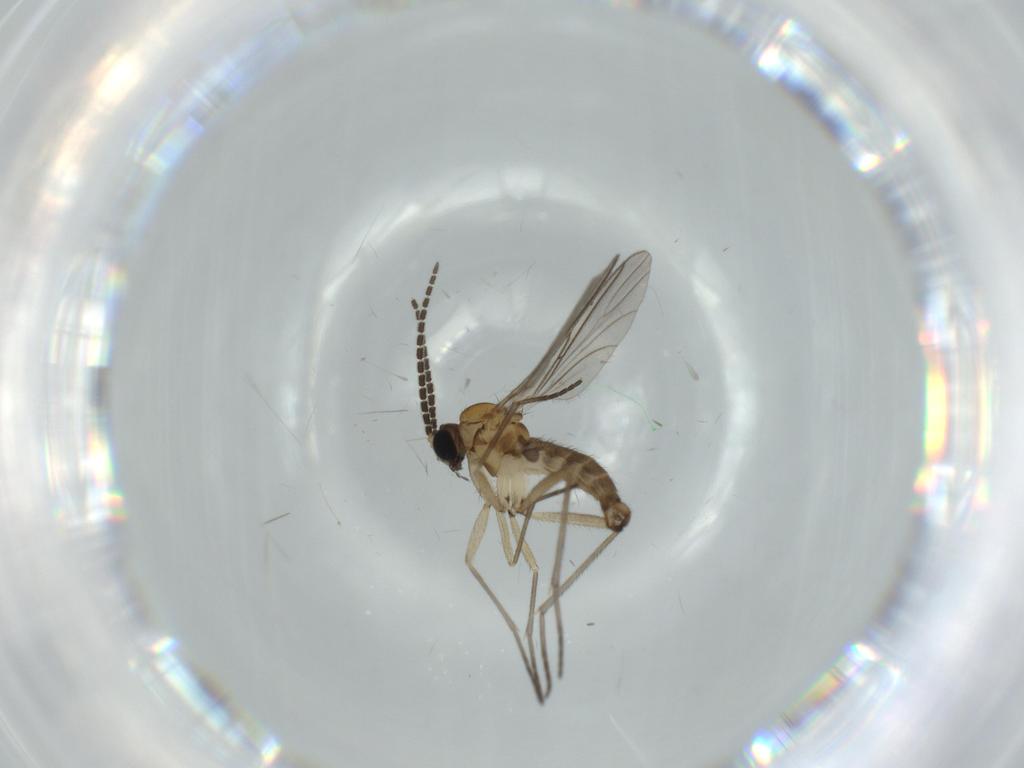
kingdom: Animalia
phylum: Arthropoda
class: Insecta
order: Diptera
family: Sciaridae
